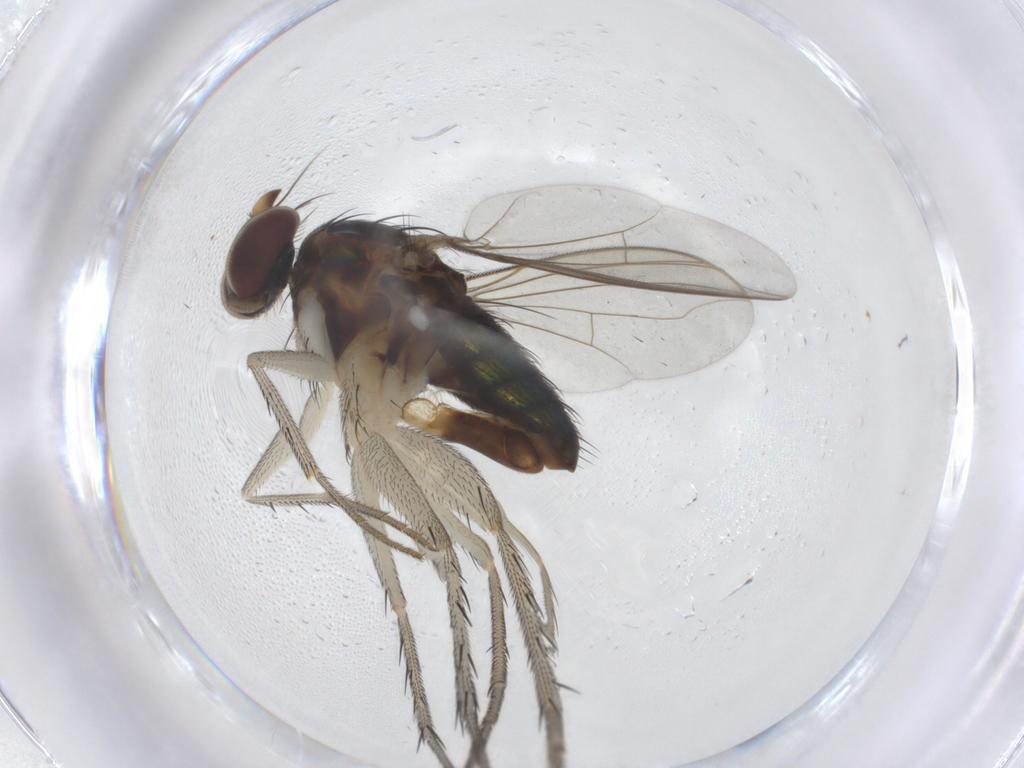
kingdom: Animalia
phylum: Arthropoda
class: Insecta
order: Diptera
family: Dolichopodidae
